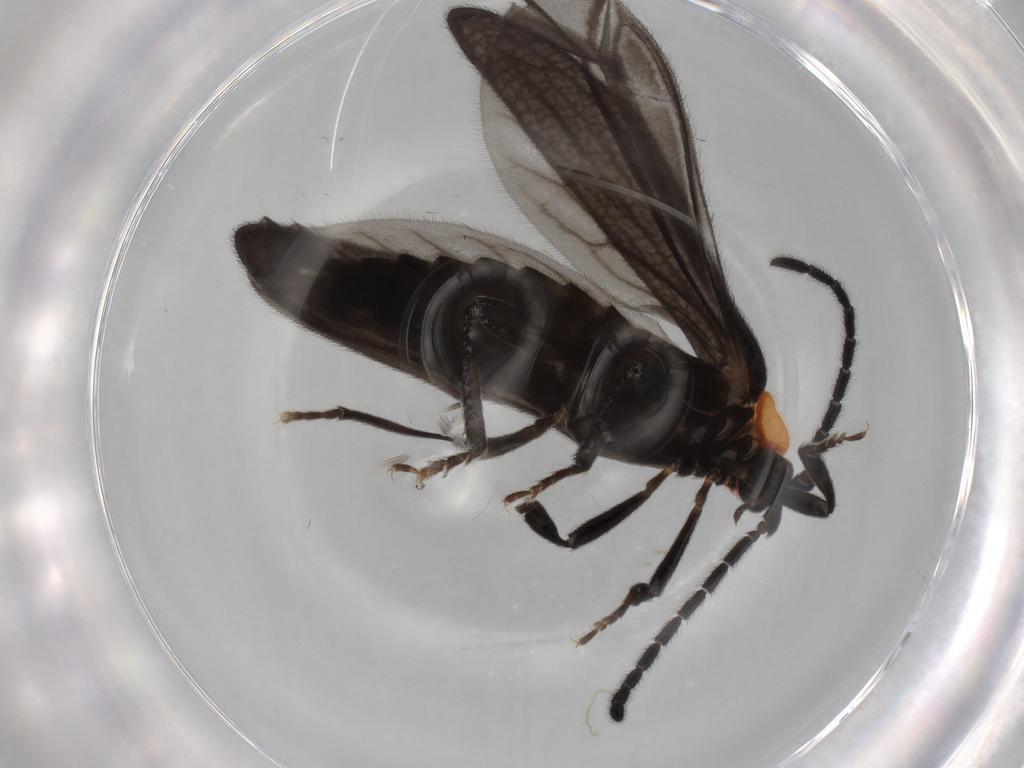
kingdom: Animalia
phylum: Arthropoda
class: Insecta
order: Coleoptera
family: Lycidae
